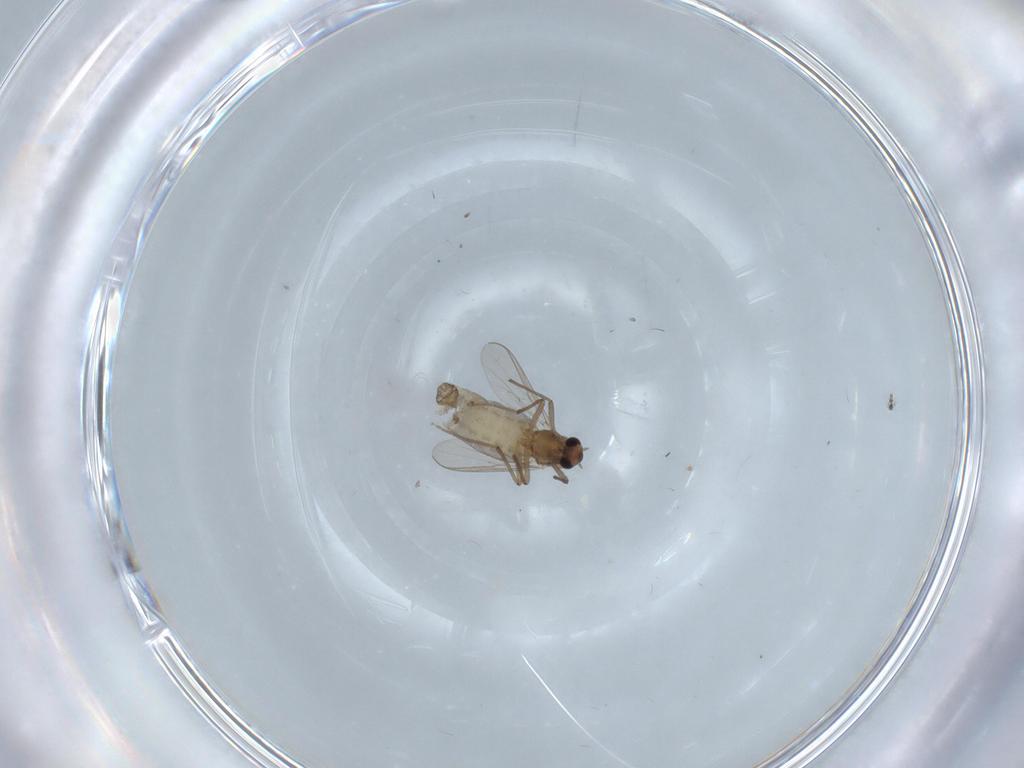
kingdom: Animalia
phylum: Arthropoda
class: Insecta
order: Diptera
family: Chironomidae
